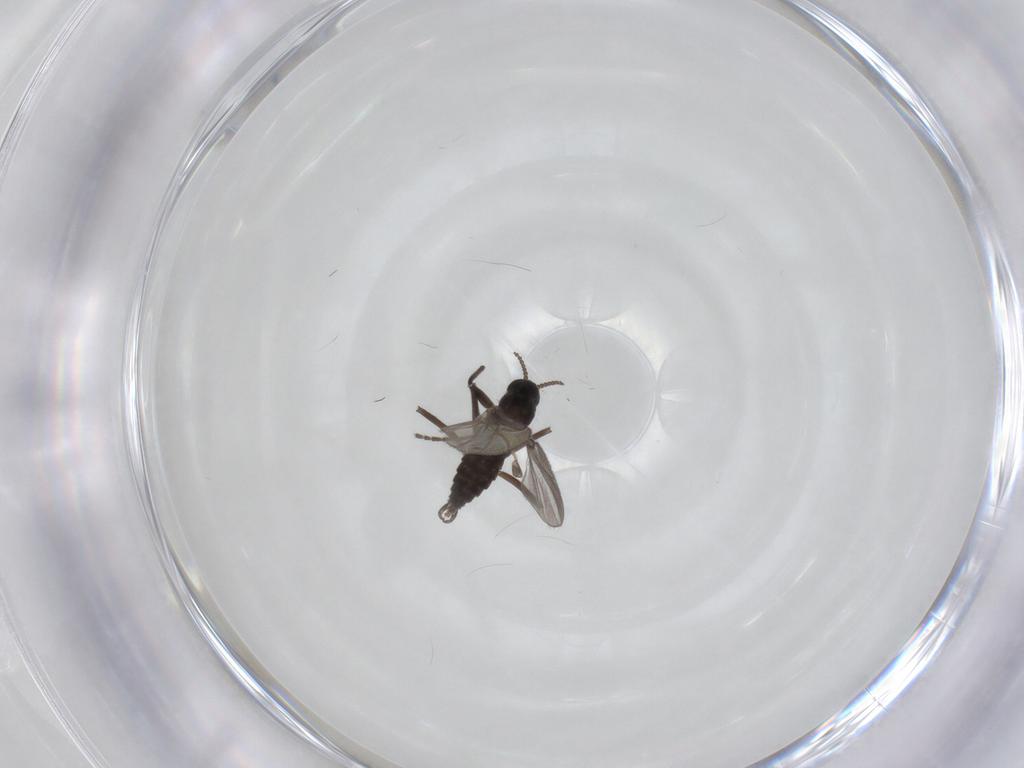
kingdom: Animalia
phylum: Arthropoda
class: Insecta
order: Diptera
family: Cecidomyiidae
